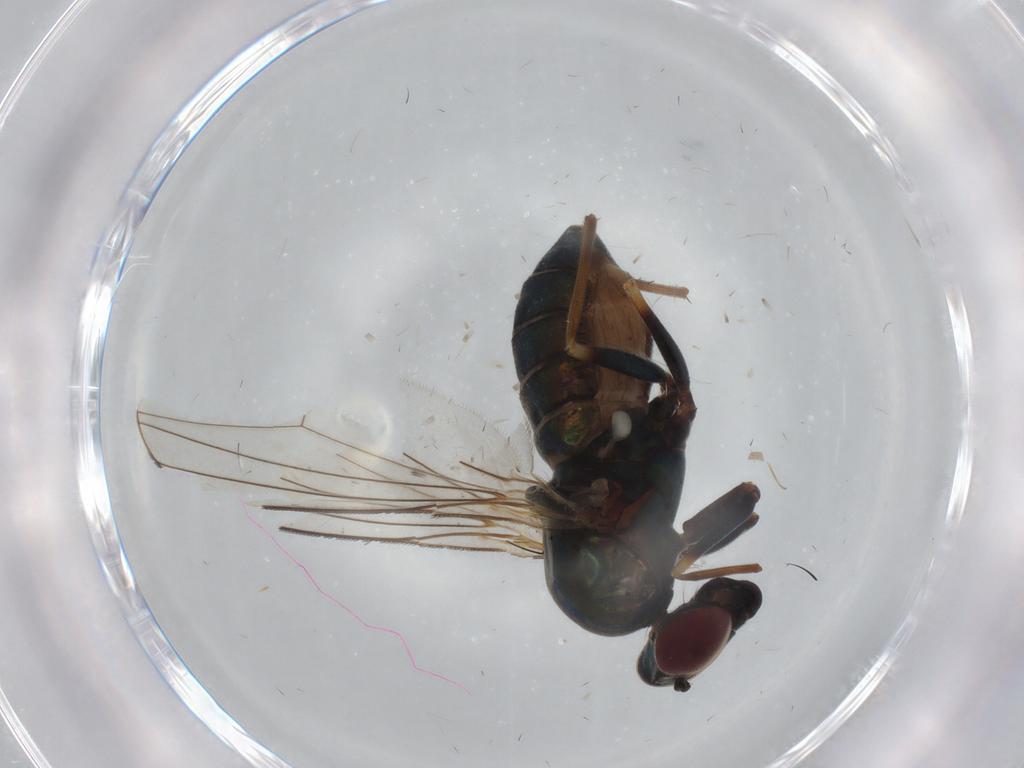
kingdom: Animalia
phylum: Arthropoda
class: Insecta
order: Diptera
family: Dolichopodidae
